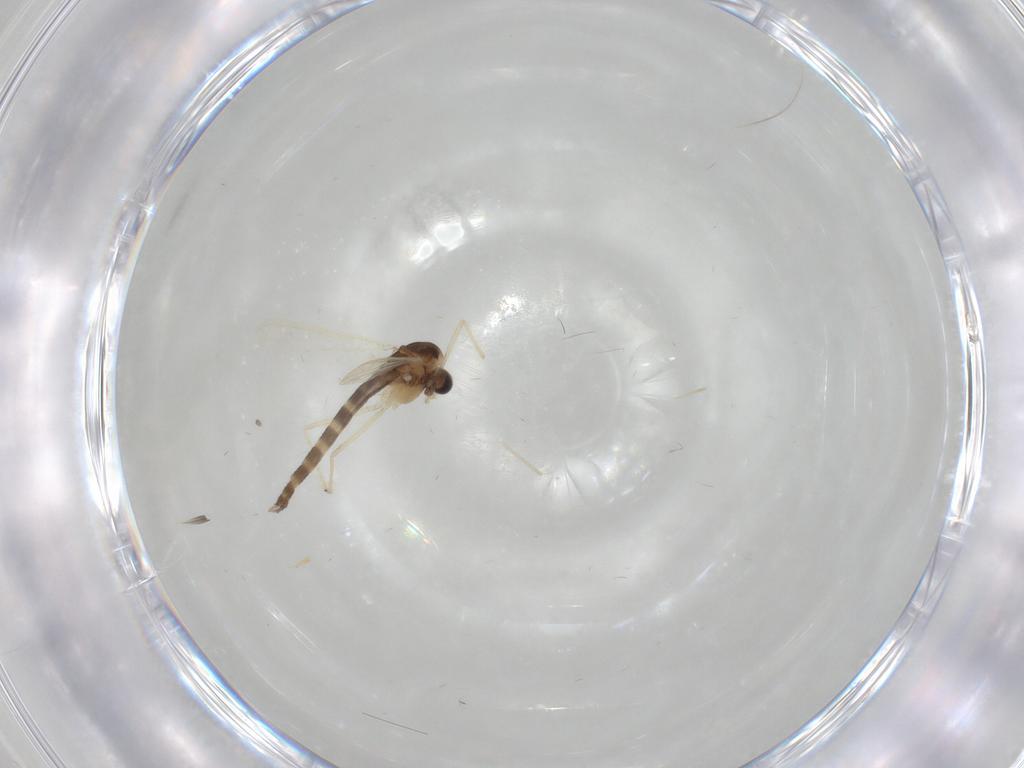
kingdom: Animalia
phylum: Arthropoda
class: Insecta
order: Diptera
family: Chironomidae
